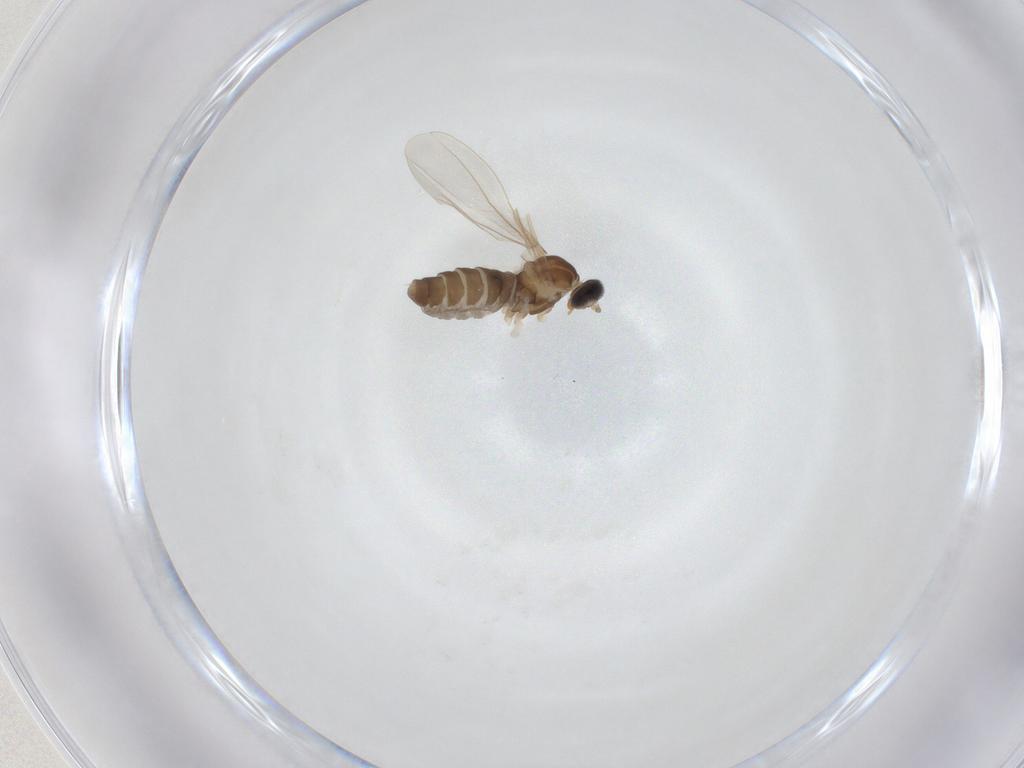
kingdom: Animalia
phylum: Arthropoda
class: Insecta
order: Diptera
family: Cecidomyiidae
